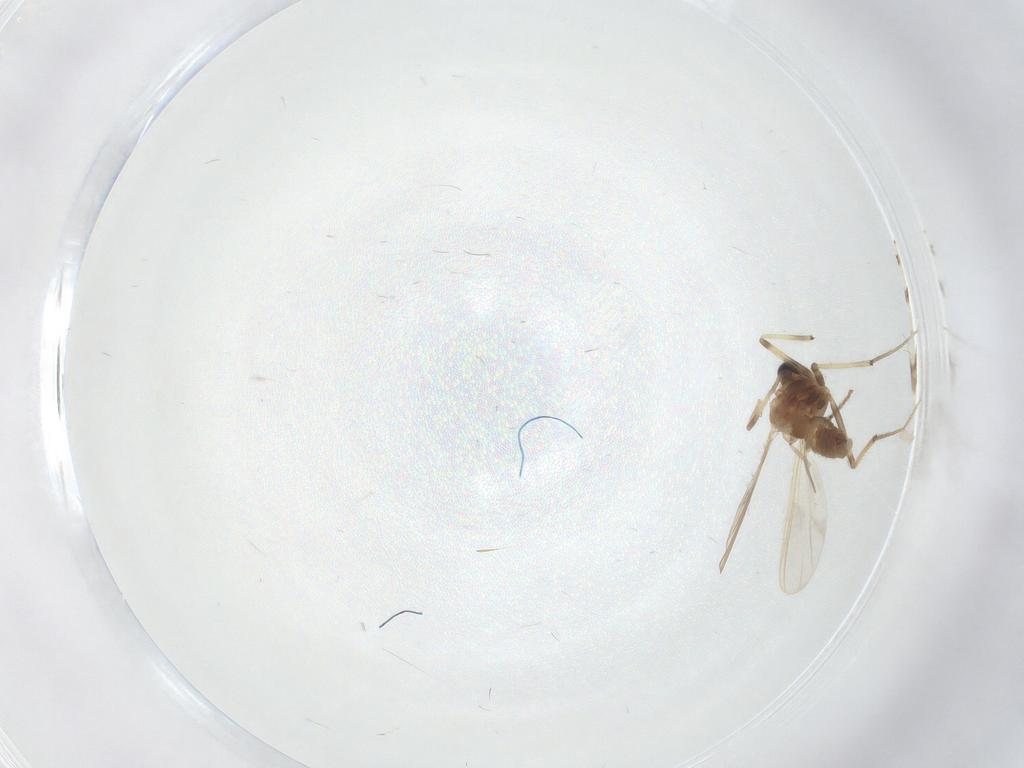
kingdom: Animalia
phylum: Arthropoda
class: Insecta
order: Diptera
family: Chironomidae
